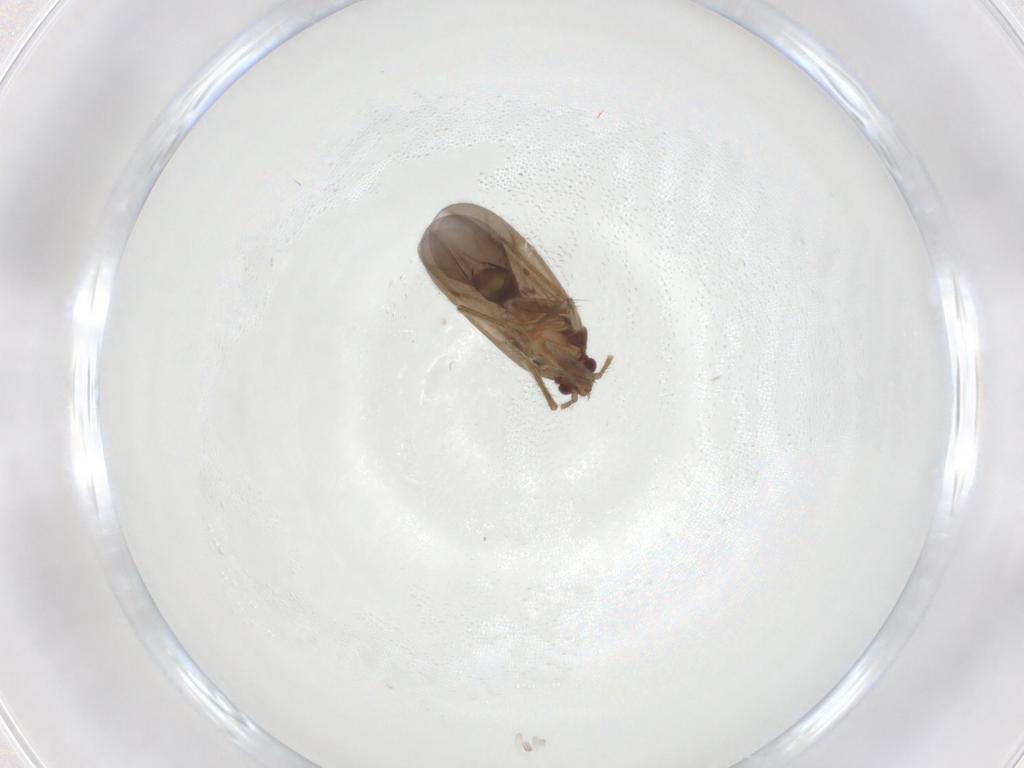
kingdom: Animalia
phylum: Arthropoda
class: Insecta
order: Hemiptera
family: Ceratocombidae
